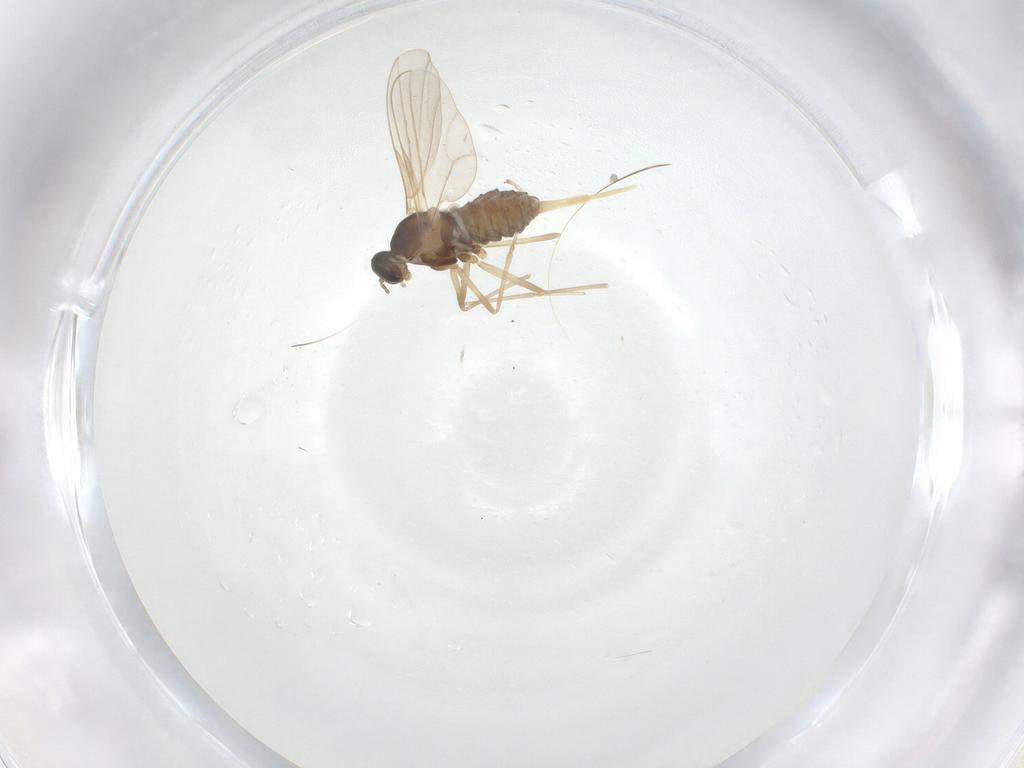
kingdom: Animalia
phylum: Arthropoda
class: Insecta
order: Diptera
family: Cecidomyiidae
